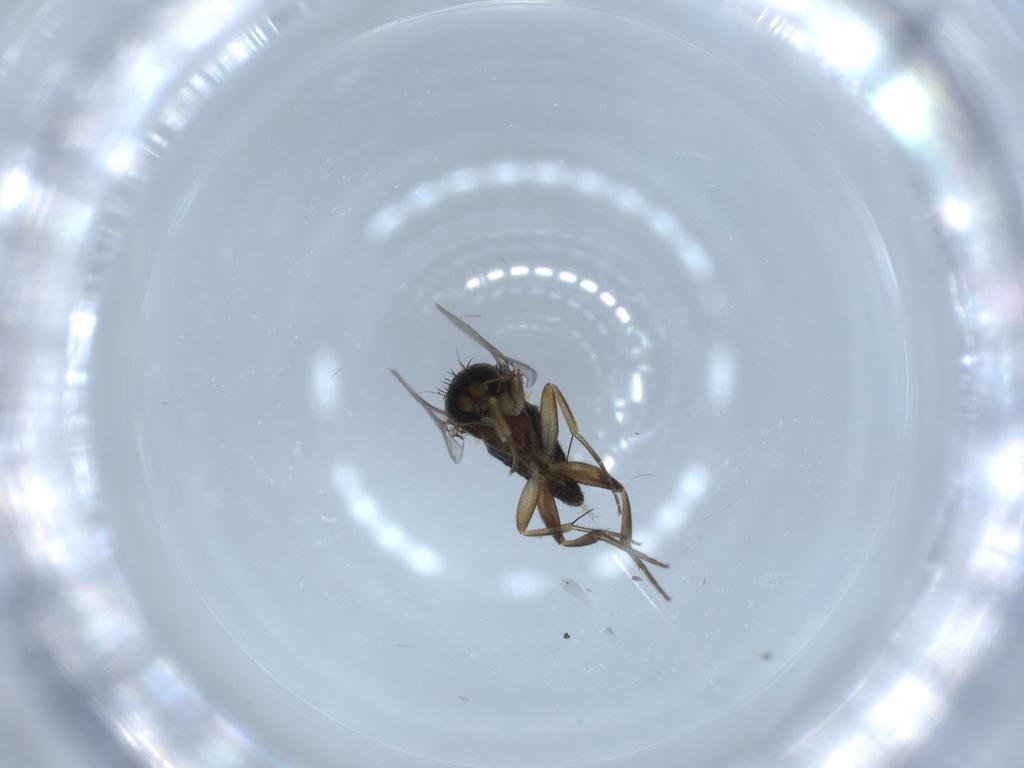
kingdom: Animalia
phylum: Arthropoda
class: Insecta
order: Diptera
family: Phoridae
